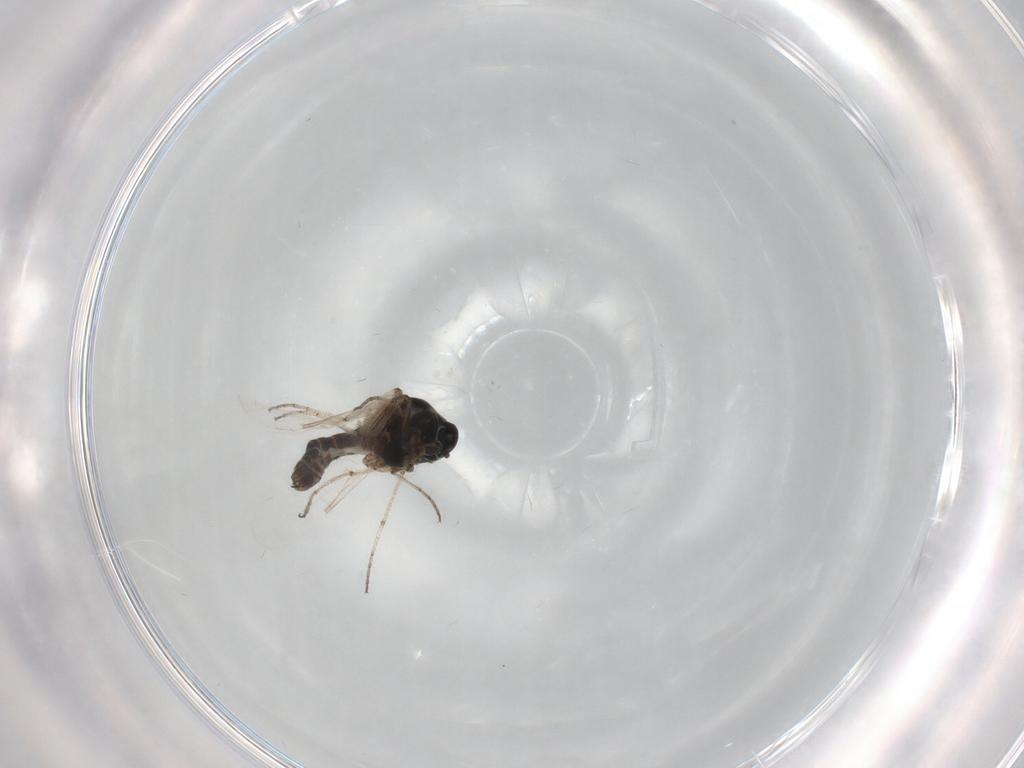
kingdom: Animalia
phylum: Arthropoda
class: Insecta
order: Diptera
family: Ceratopogonidae
